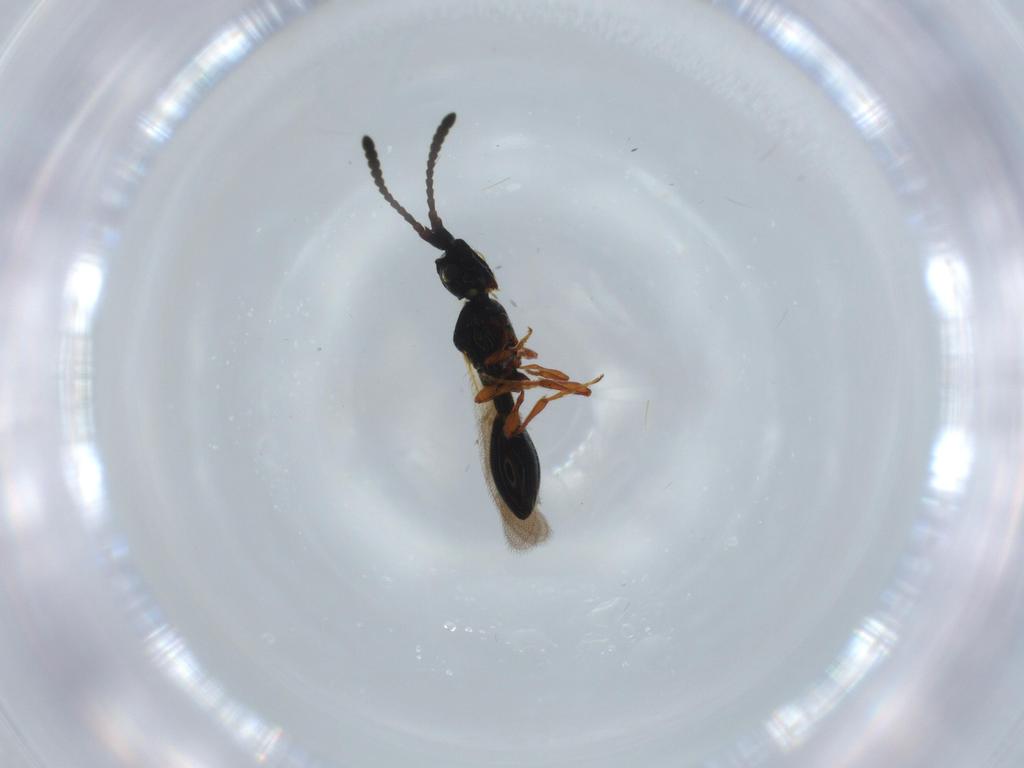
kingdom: Animalia
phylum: Arthropoda
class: Insecta
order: Hymenoptera
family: Diapriidae
